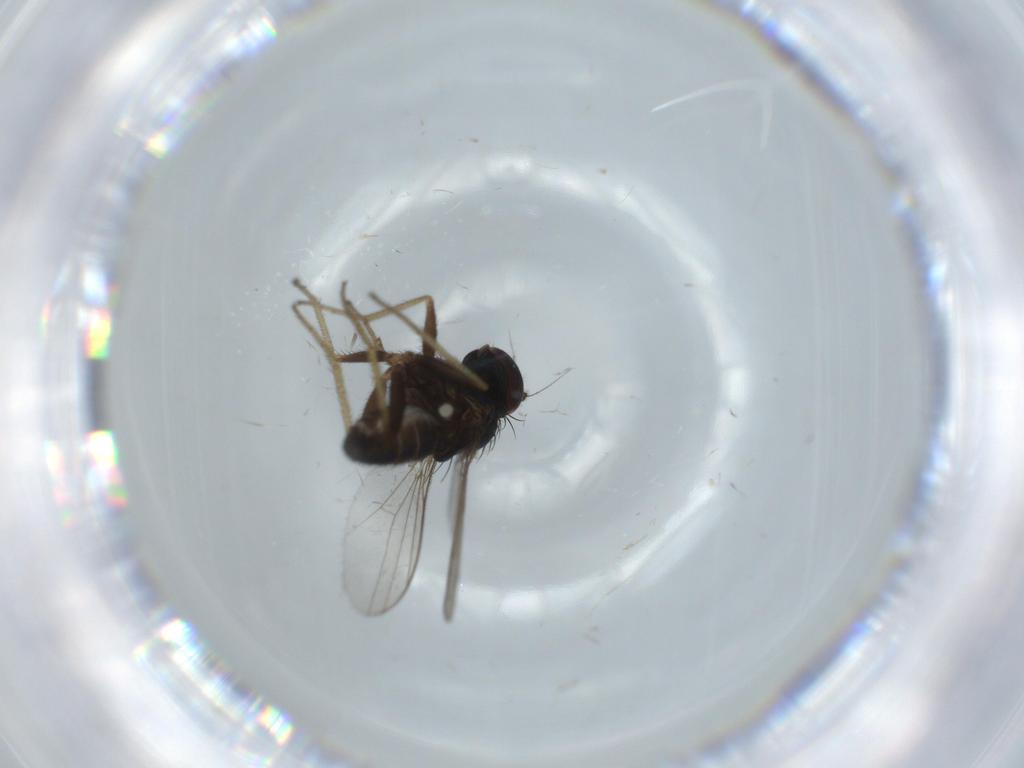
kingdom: Animalia
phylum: Arthropoda
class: Insecta
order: Diptera
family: Dolichopodidae
